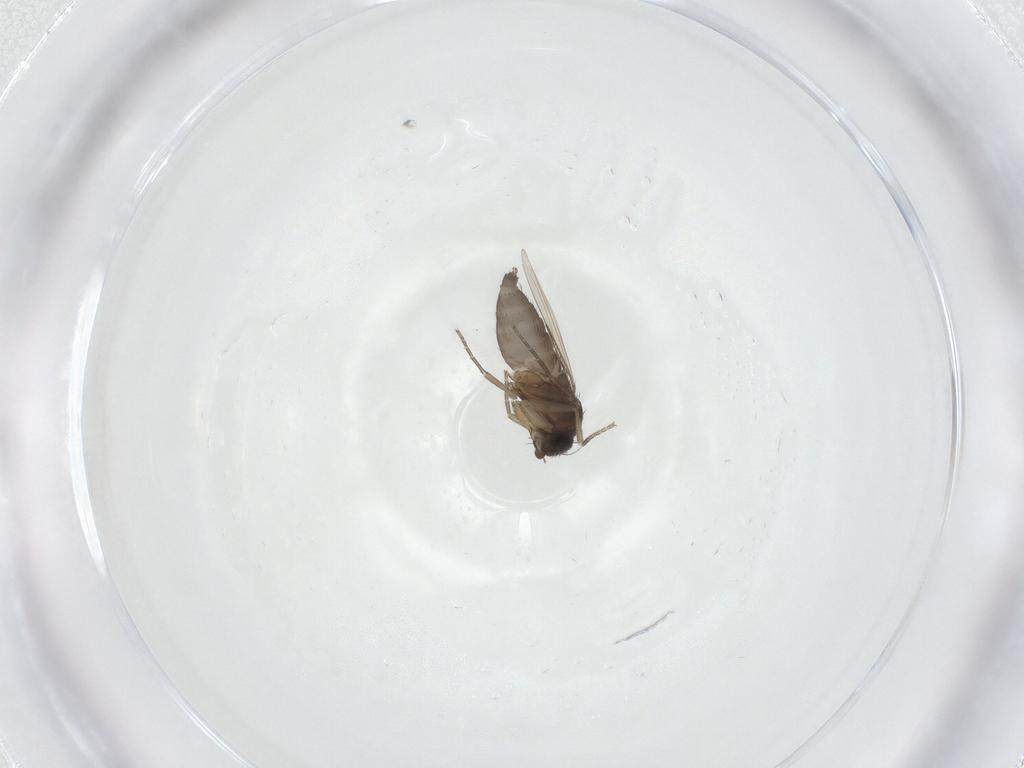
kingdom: Animalia
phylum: Arthropoda
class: Insecta
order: Diptera
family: Phoridae
